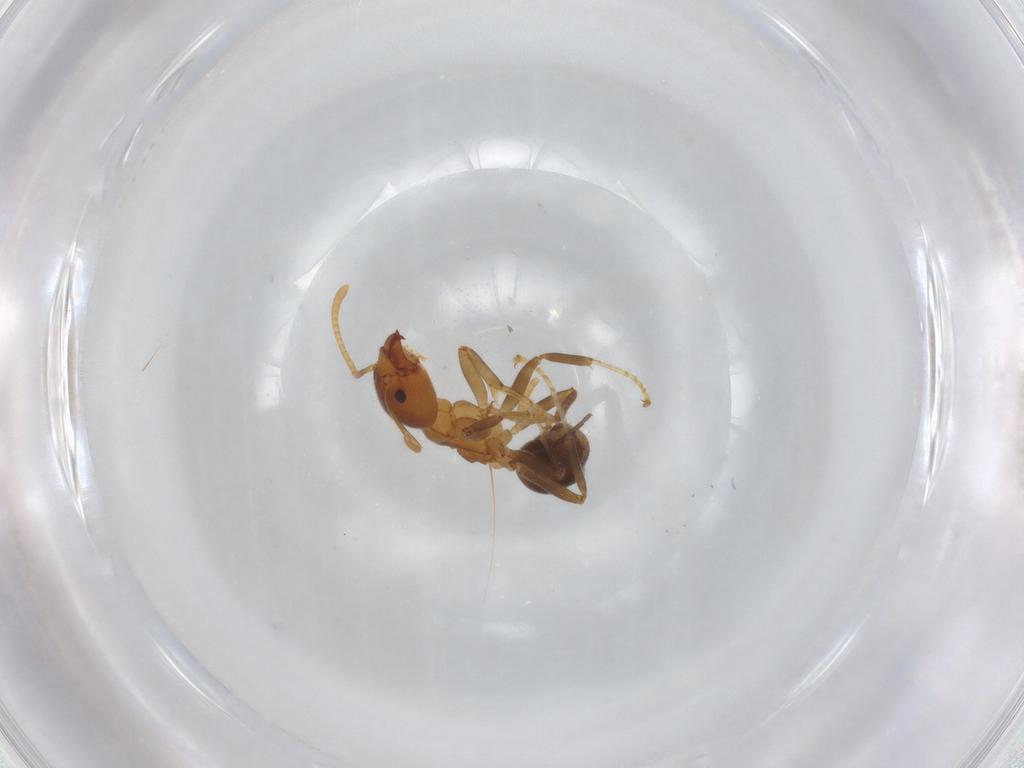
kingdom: Animalia
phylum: Arthropoda
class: Insecta
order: Hymenoptera
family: Formicidae
